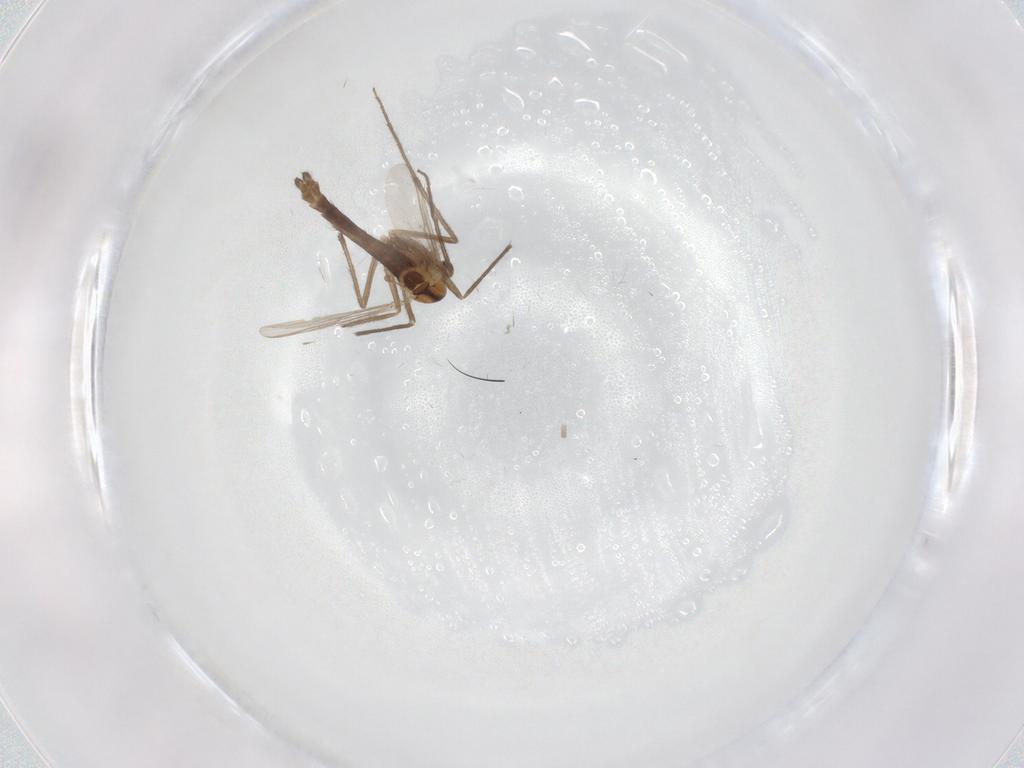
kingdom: Animalia
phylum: Arthropoda
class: Insecta
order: Diptera
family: Chironomidae
